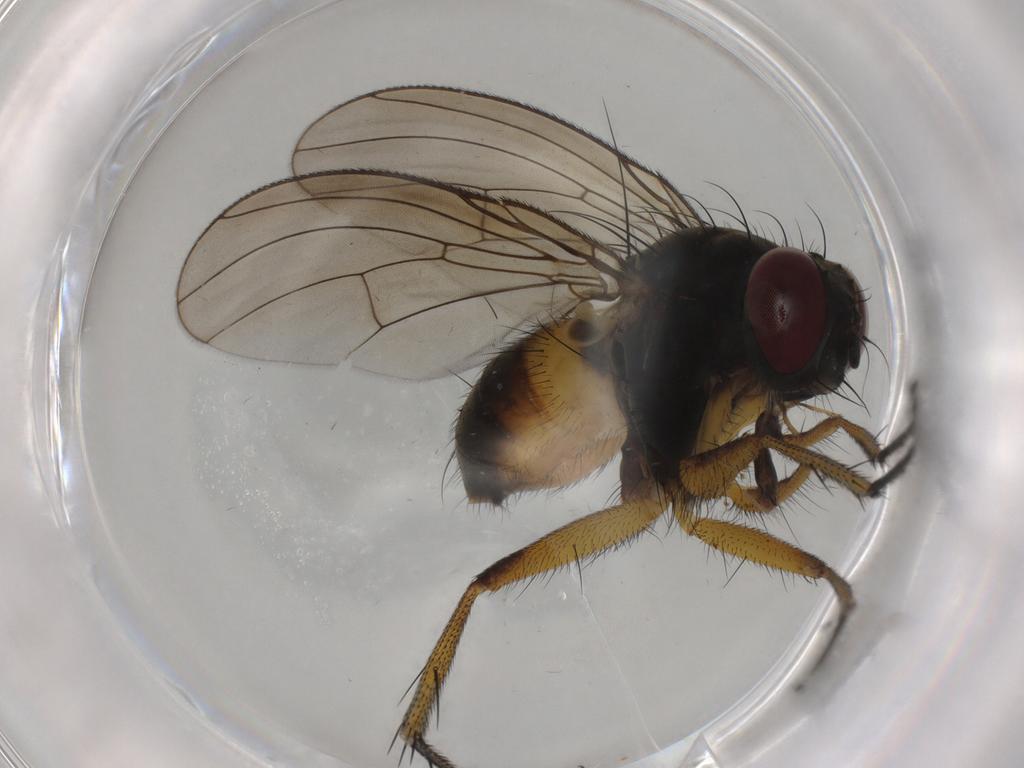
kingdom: Animalia
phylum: Arthropoda
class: Insecta
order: Diptera
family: Muscidae
